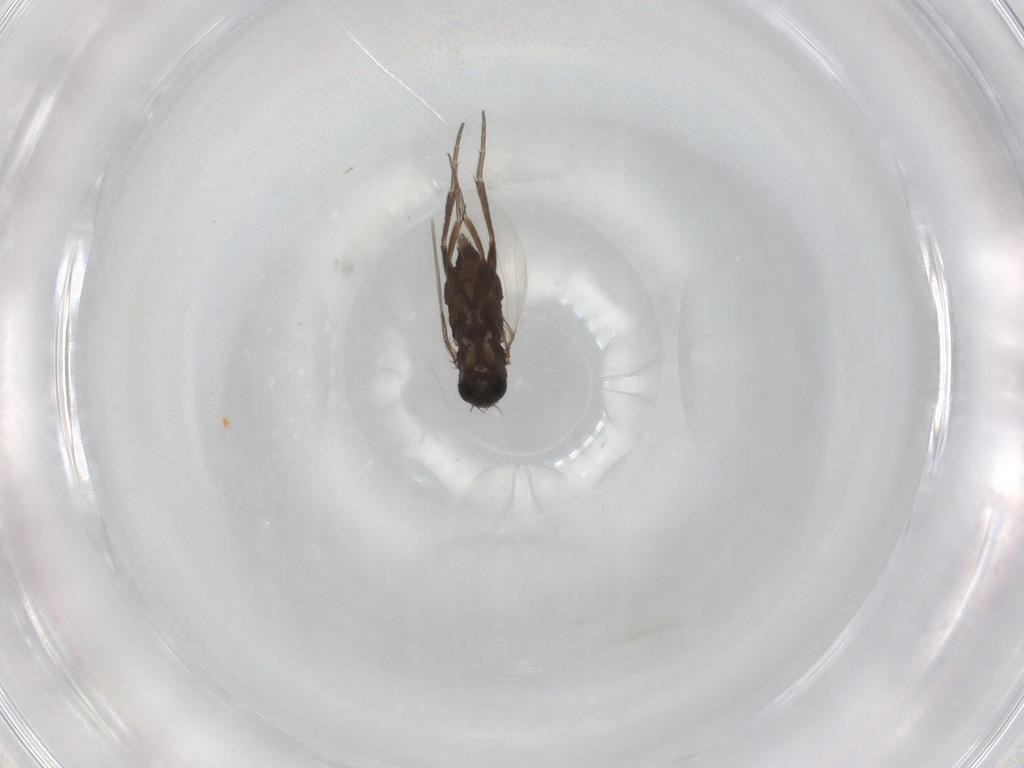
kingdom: Animalia
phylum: Arthropoda
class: Insecta
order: Diptera
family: Phoridae
